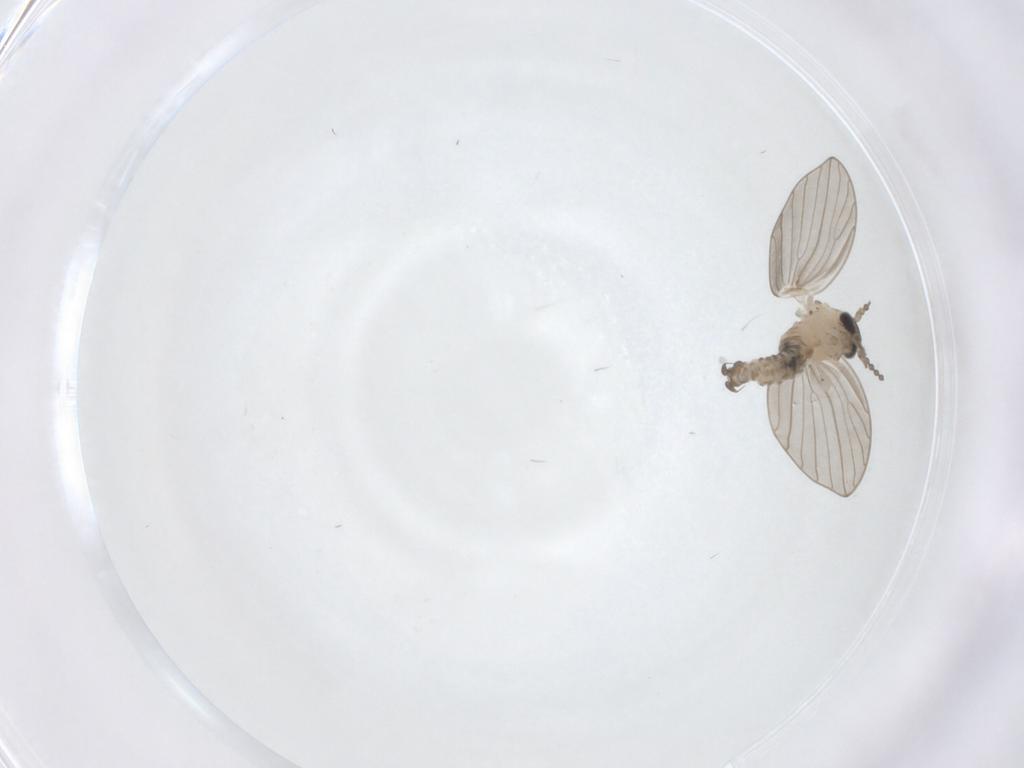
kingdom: Animalia
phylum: Arthropoda
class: Insecta
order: Diptera
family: Psychodidae
